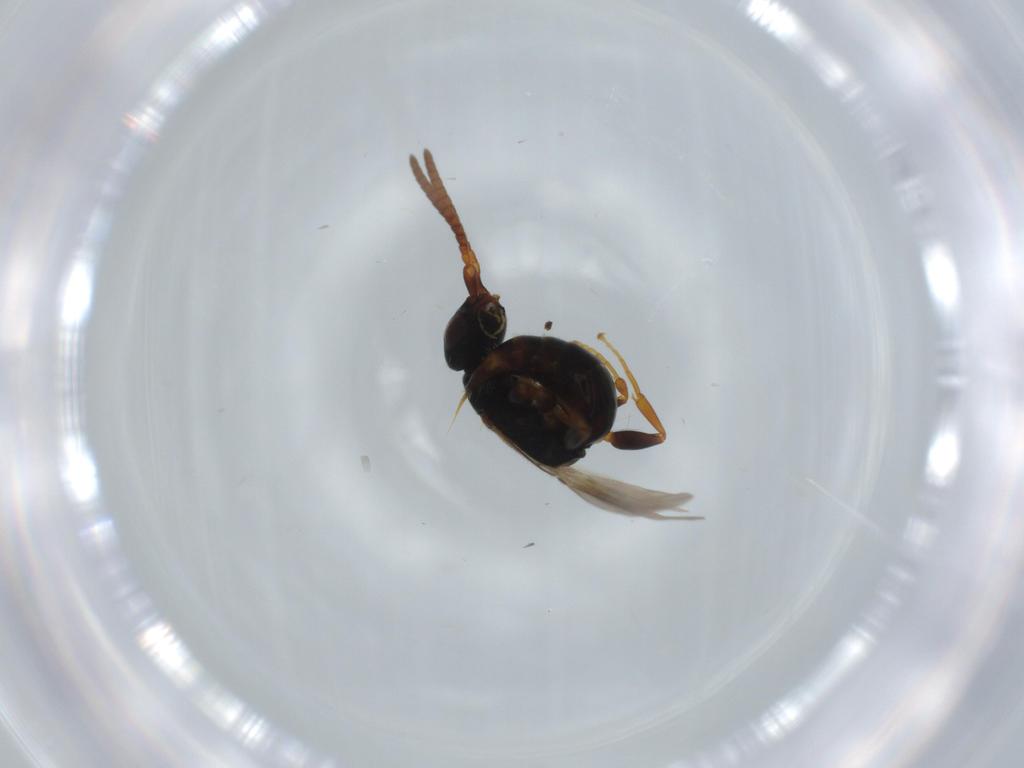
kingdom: Animalia
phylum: Arthropoda
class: Insecta
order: Hymenoptera
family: Bethylidae
